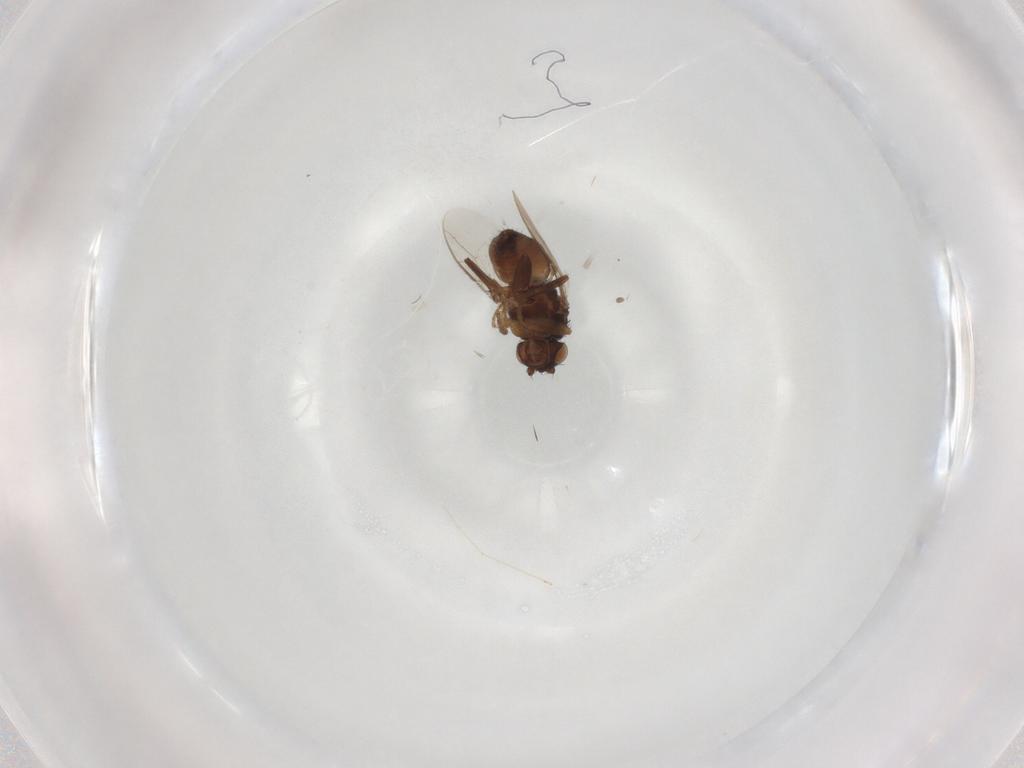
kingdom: Animalia
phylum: Arthropoda
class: Insecta
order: Diptera
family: Sphaeroceridae
